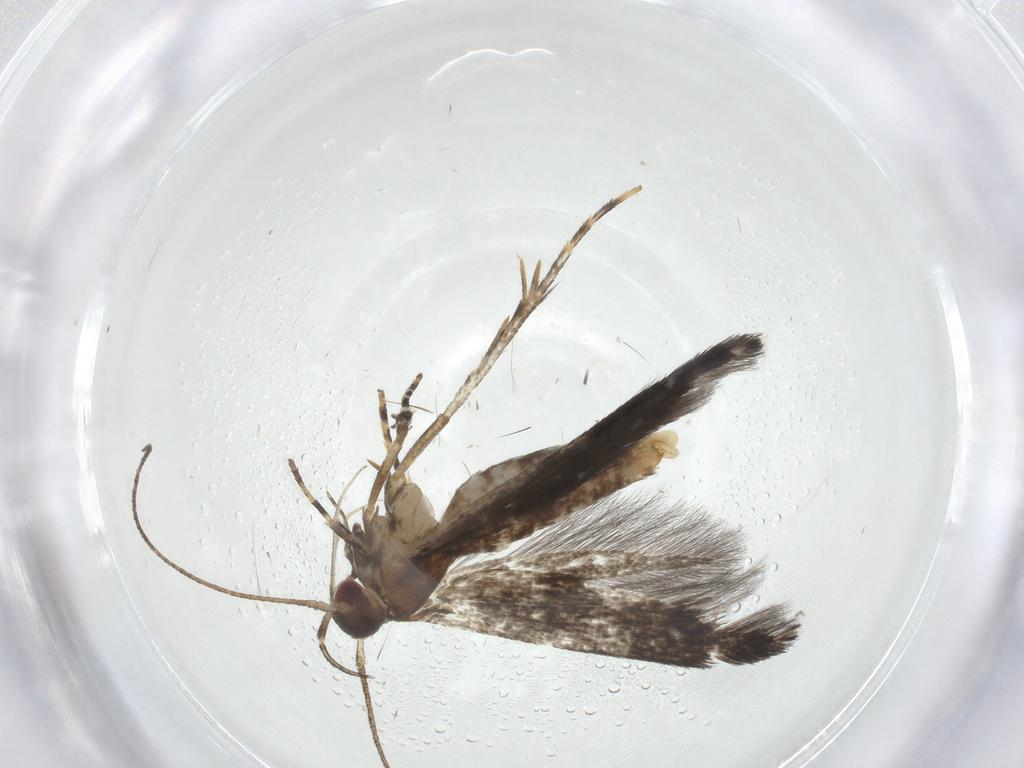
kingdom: Animalia
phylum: Arthropoda
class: Insecta
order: Lepidoptera
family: Cosmopterigidae
